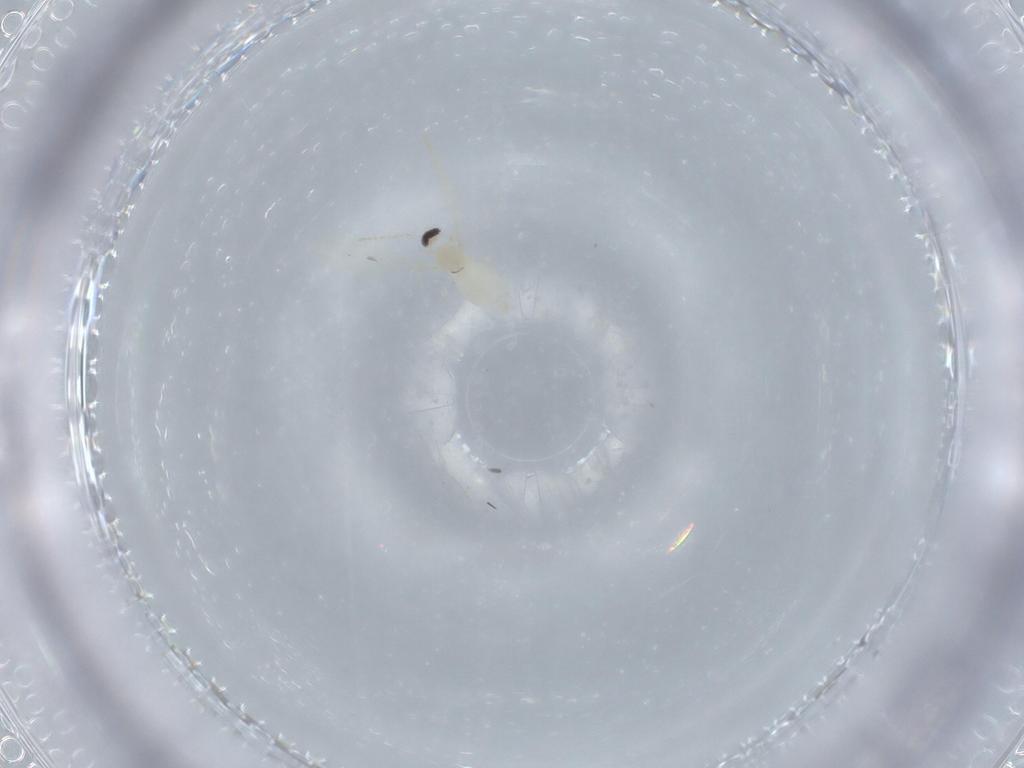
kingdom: Animalia
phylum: Arthropoda
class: Insecta
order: Diptera
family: Cecidomyiidae
